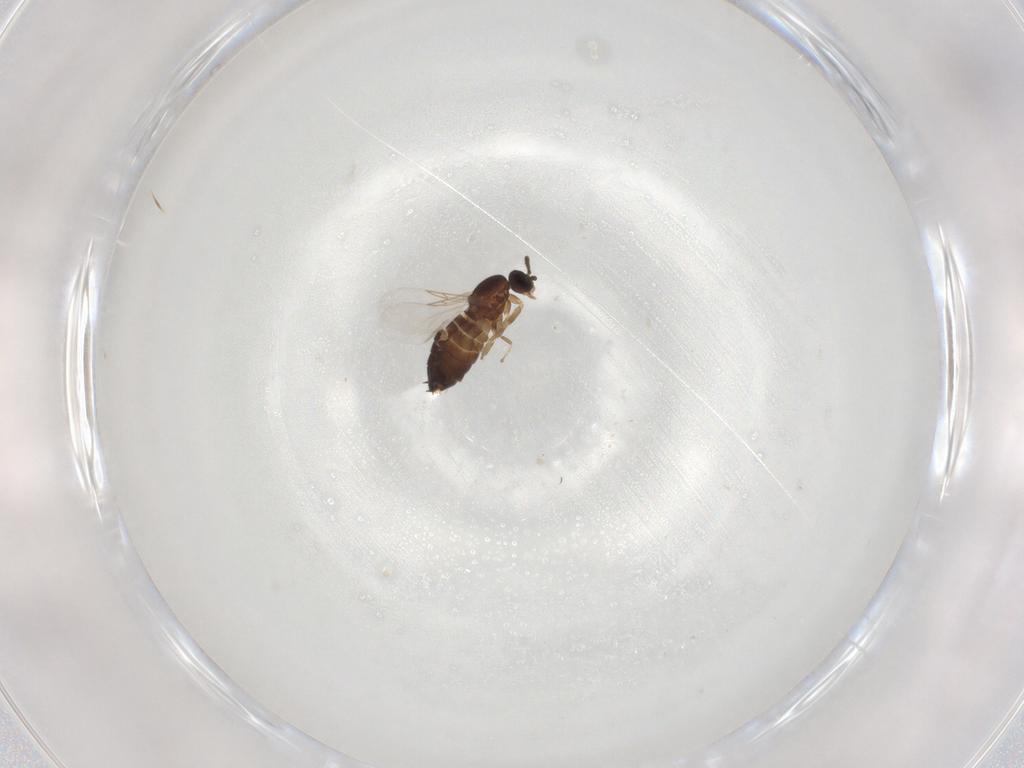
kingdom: Animalia
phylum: Arthropoda
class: Insecta
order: Diptera
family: Scatopsidae
